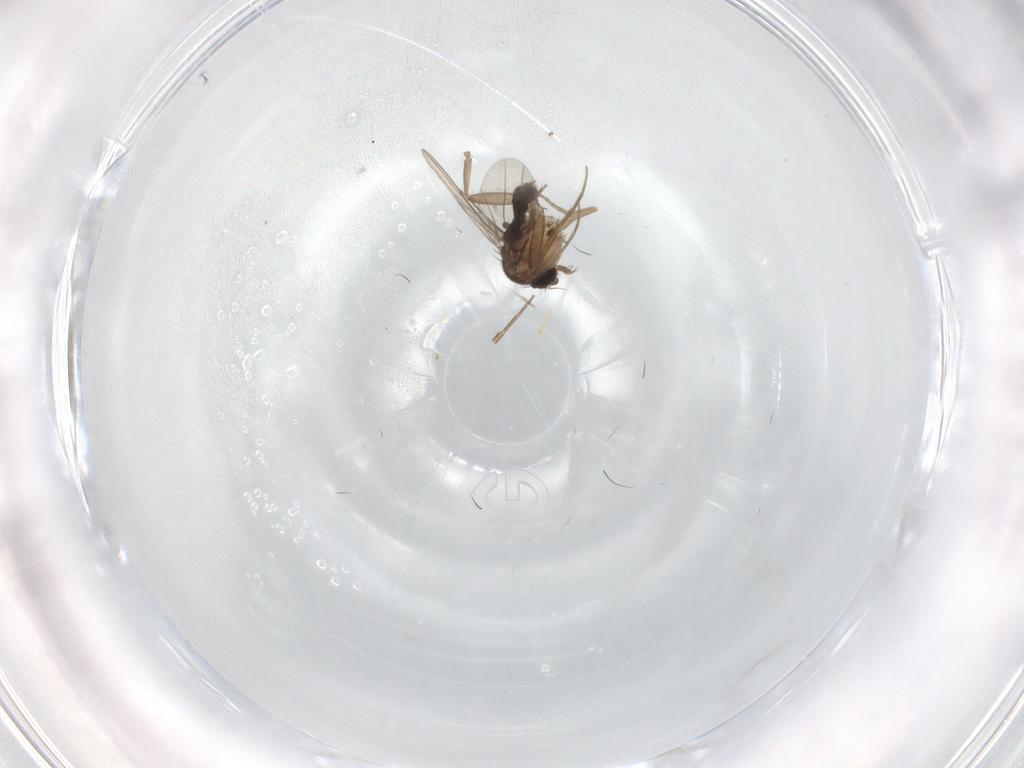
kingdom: Animalia
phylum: Arthropoda
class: Insecta
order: Diptera
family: Cecidomyiidae
